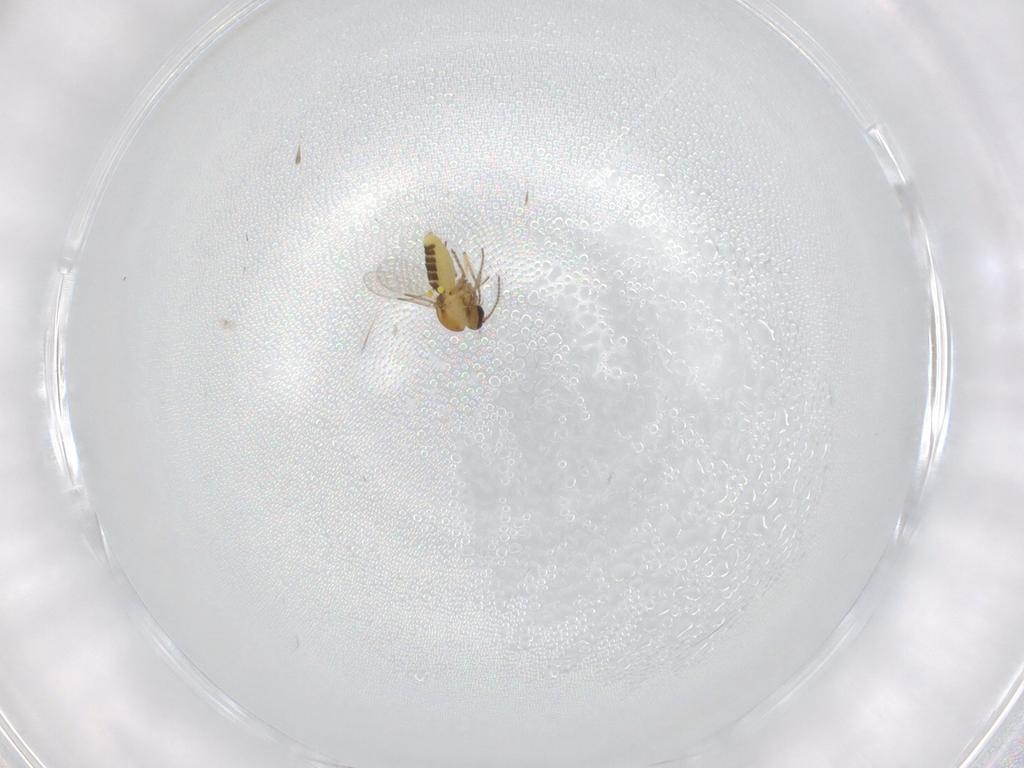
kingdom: Animalia
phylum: Arthropoda
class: Insecta
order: Diptera
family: Ceratopogonidae
